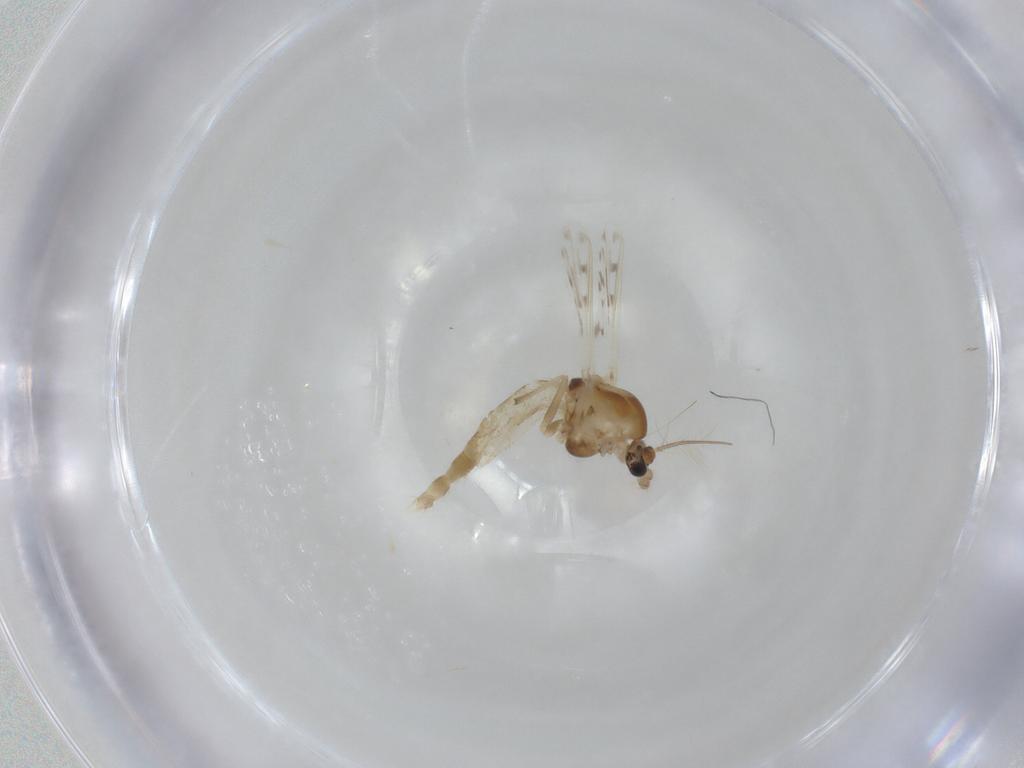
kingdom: Animalia
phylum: Arthropoda
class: Insecta
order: Diptera
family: Chironomidae
